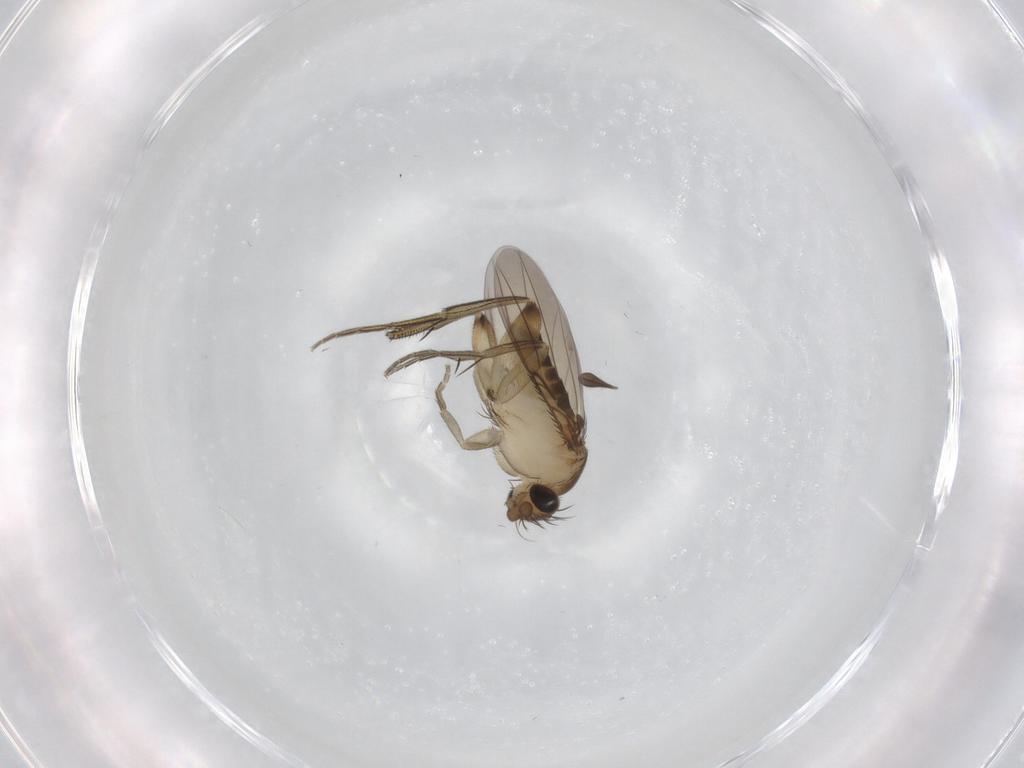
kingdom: Animalia
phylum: Arthropoda
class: Insecta
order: Diptera
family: Phoridae
